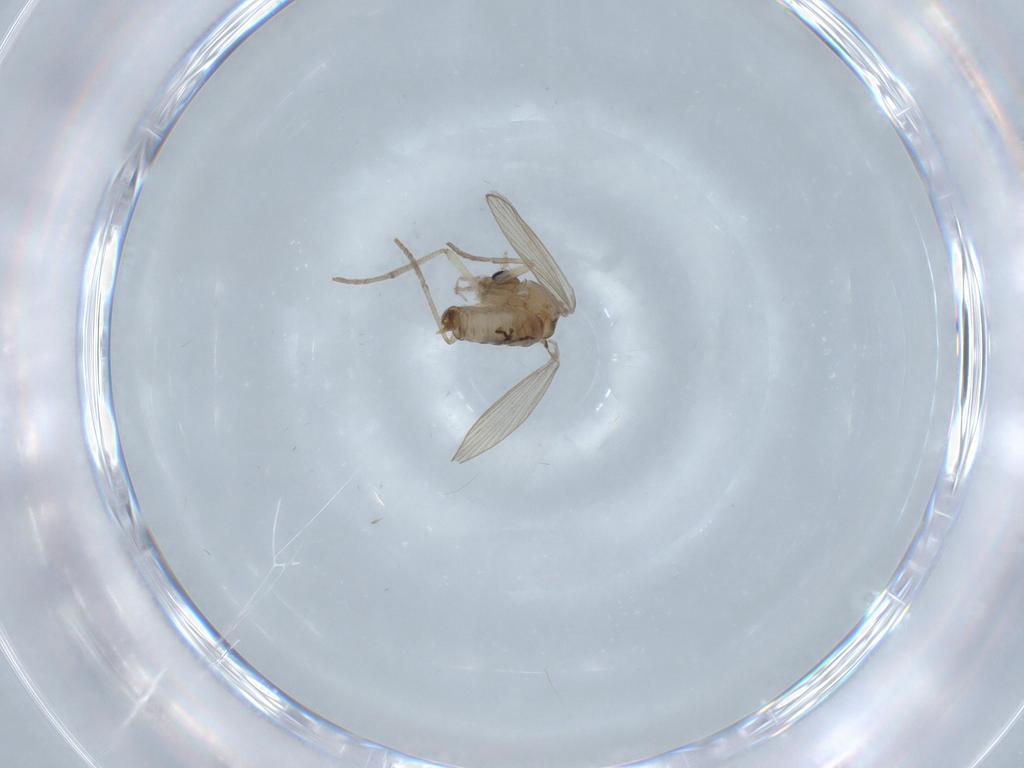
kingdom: Animalia
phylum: Arthropoda
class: Insecta
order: Diptera
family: Psychodidae
